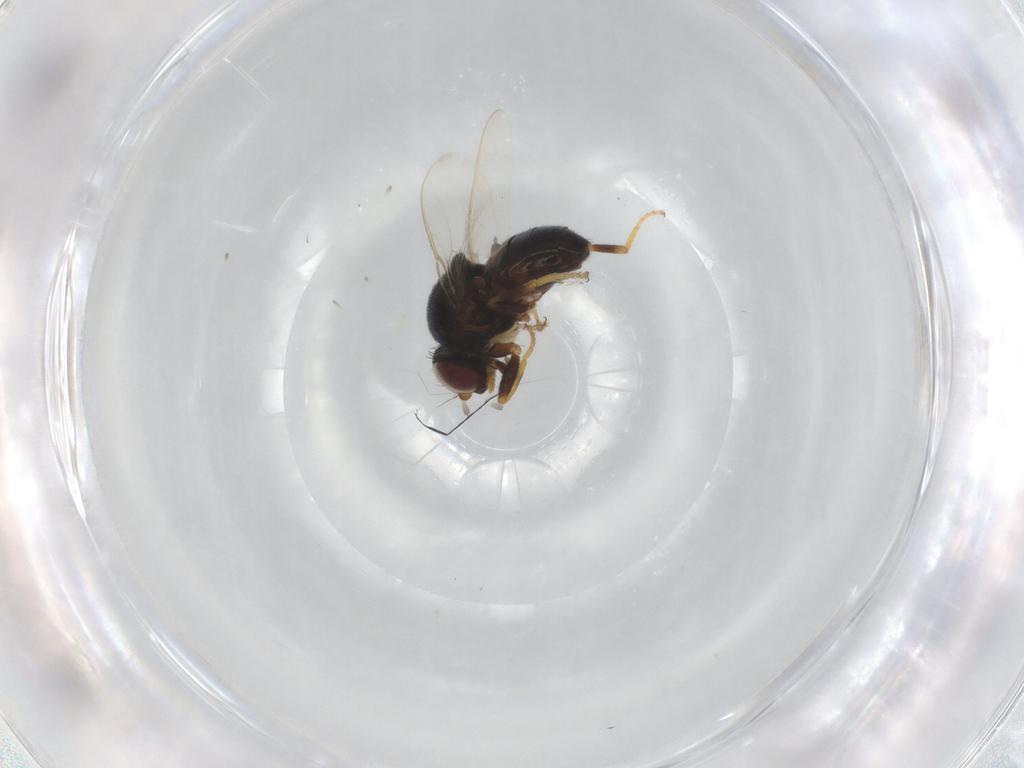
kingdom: Animalia
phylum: Arthropoda
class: Insecta
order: Diptera
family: Chloropidae
